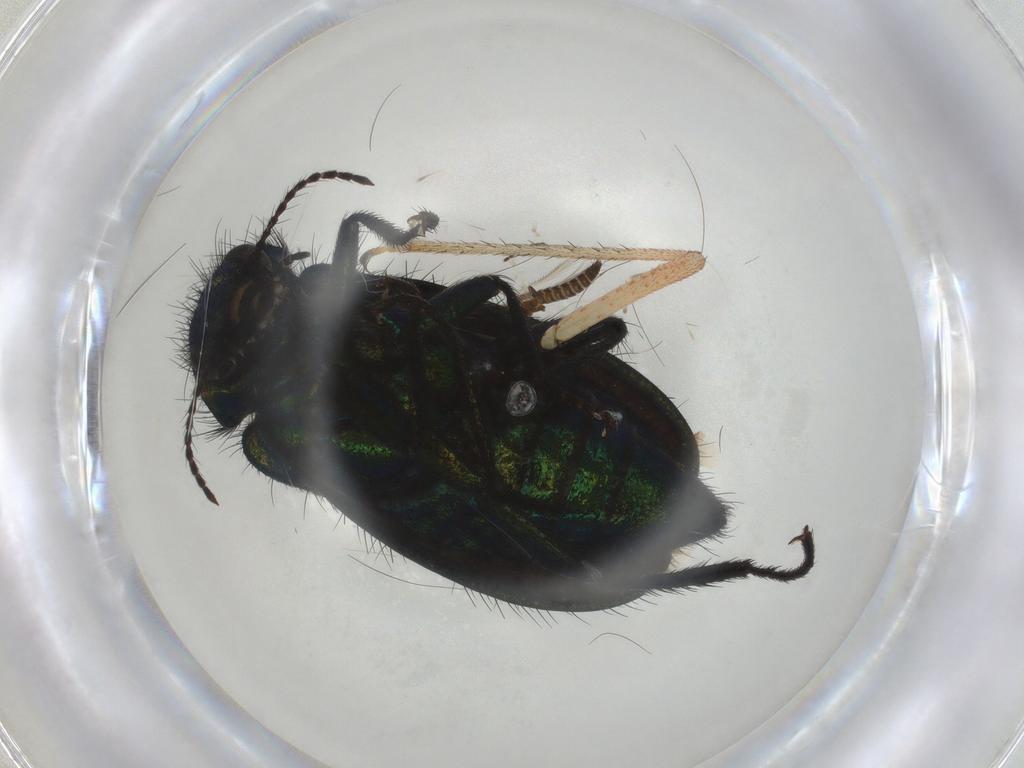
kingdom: Animalia
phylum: Arthropoda
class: Insecta
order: Coleoptera
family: Melyridae
